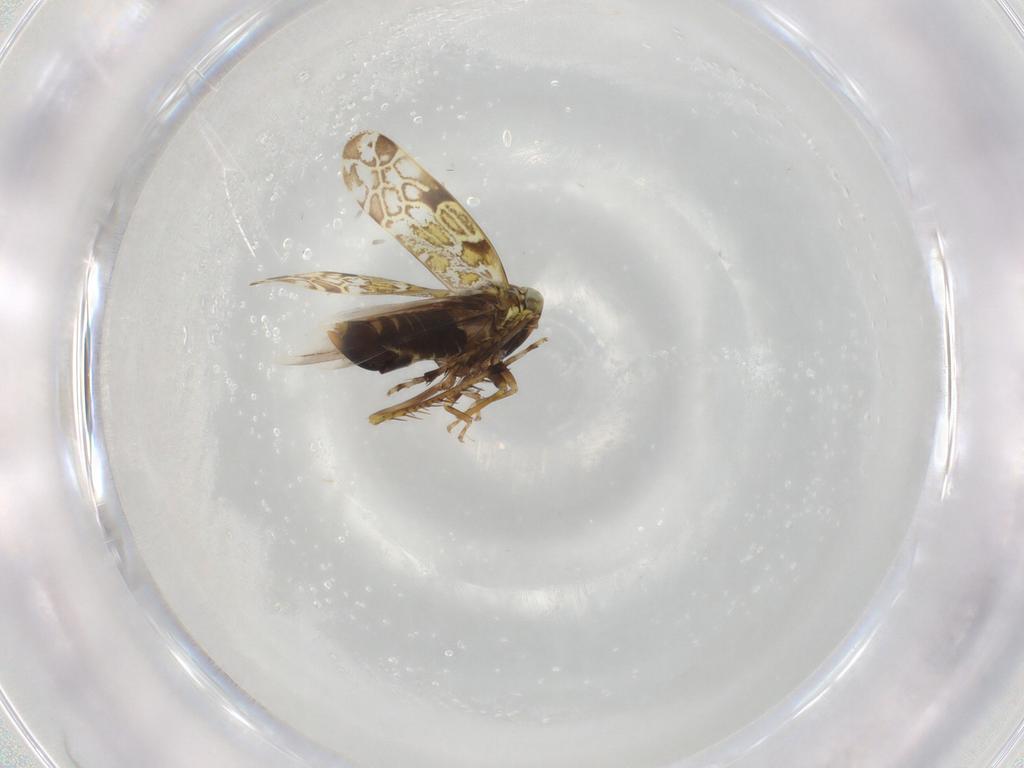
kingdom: Animalia
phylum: Arthropoda
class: Insecta
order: Hemiptera
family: Cicadellidae
